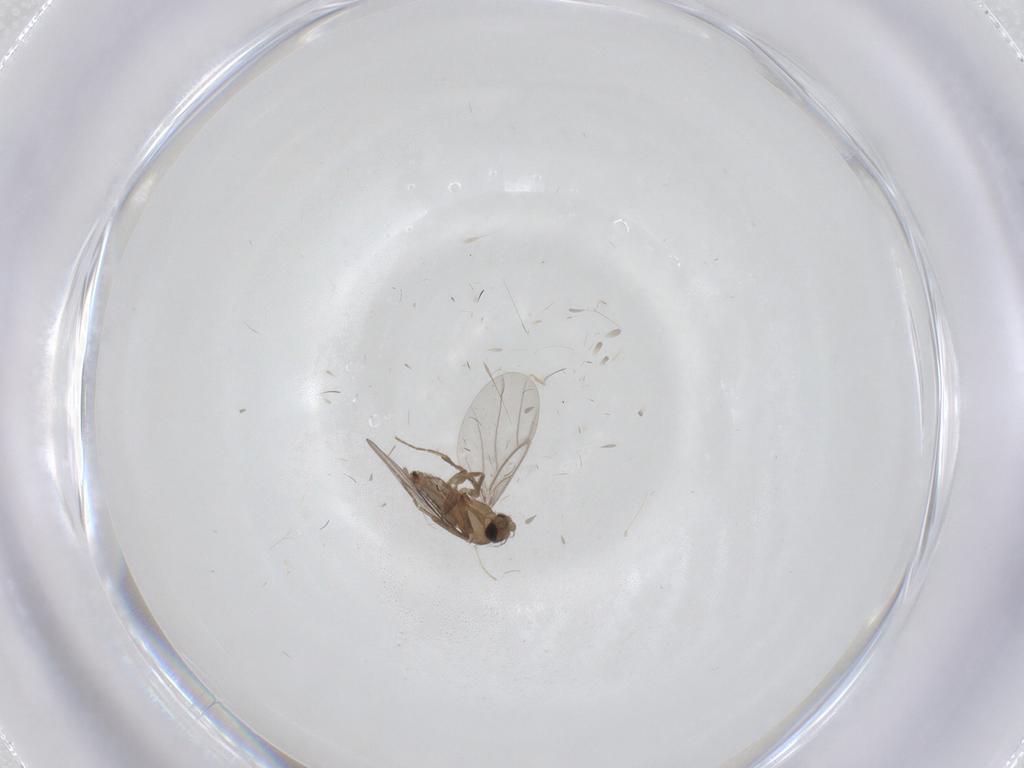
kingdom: Animalia
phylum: Arthropoda
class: Insecta
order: Diptera
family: Chironomidae
